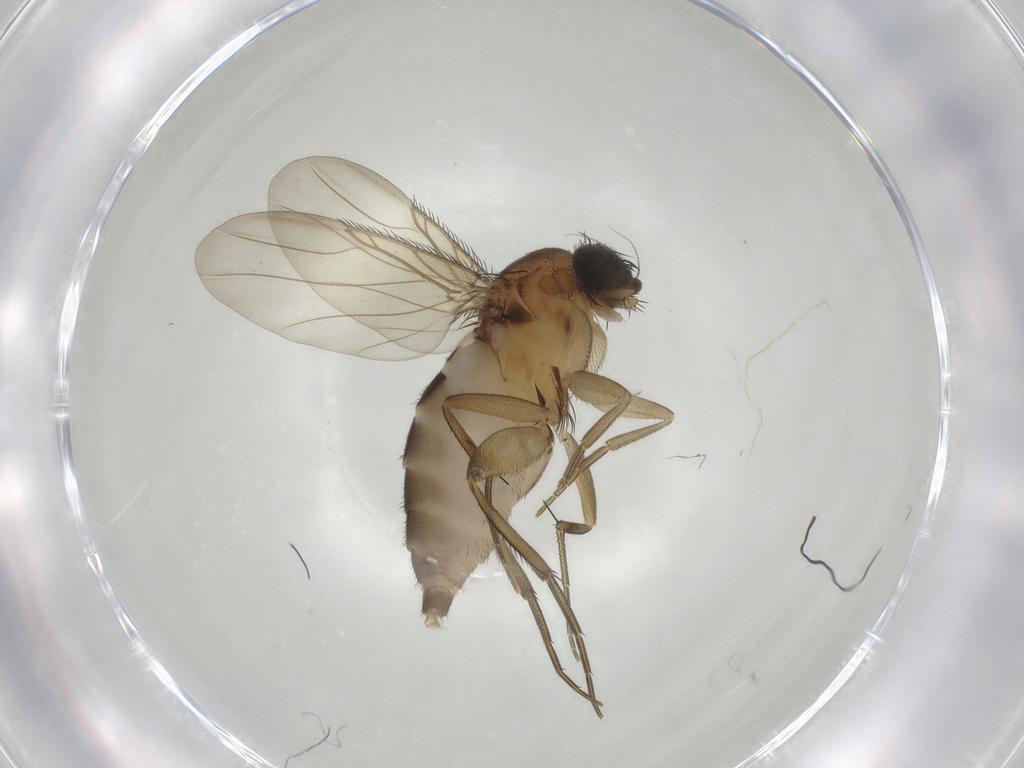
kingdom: Animalia
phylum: Arthropoda
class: Insecta
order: Diptera
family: Phoridae
